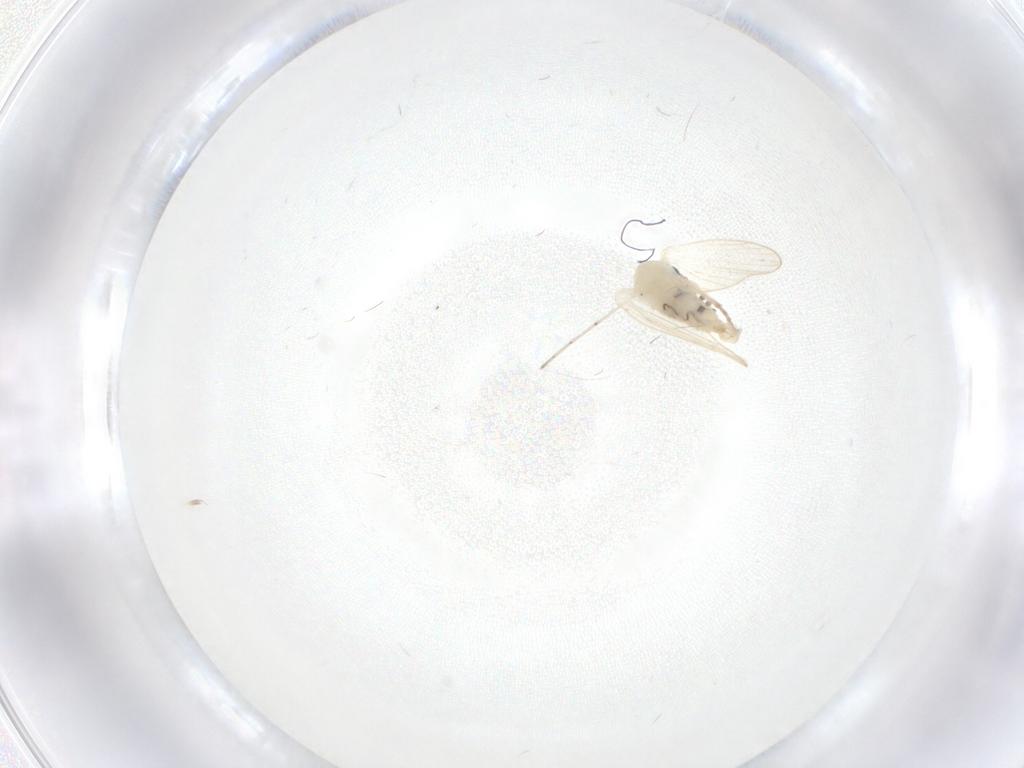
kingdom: Animalia
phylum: Arthropoda
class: Insecta
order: Diptera
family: Cecidomyiidae
